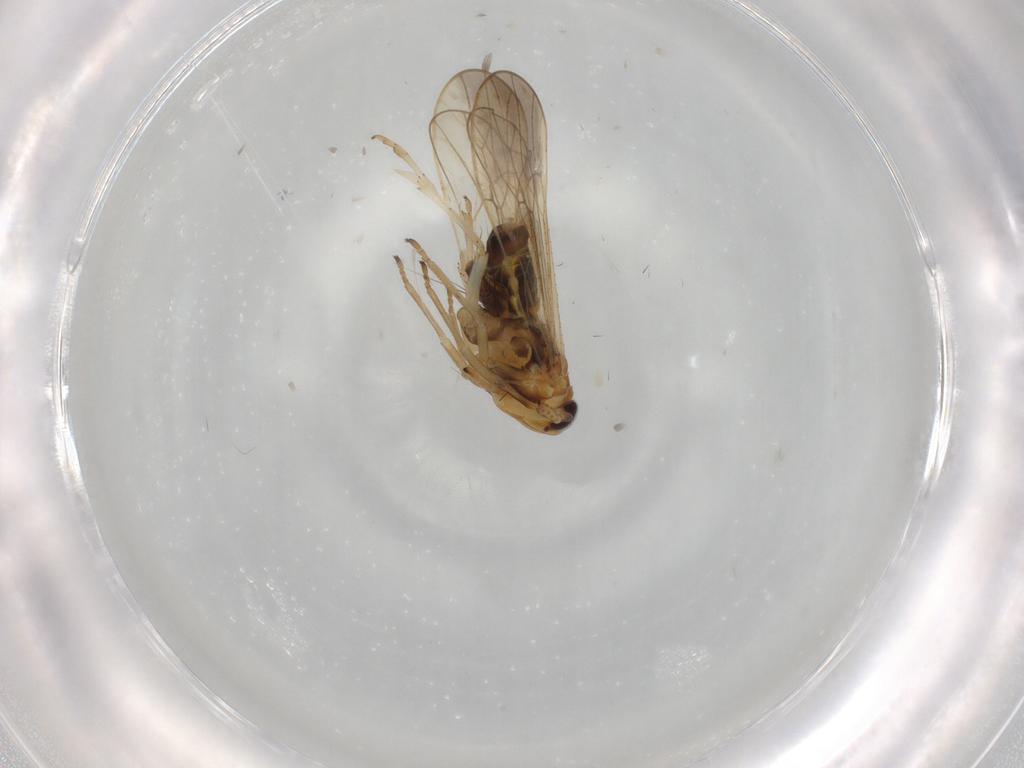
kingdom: Animalia
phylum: Arthropoda
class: Insecta
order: Hemiptera
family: Delphacidae
